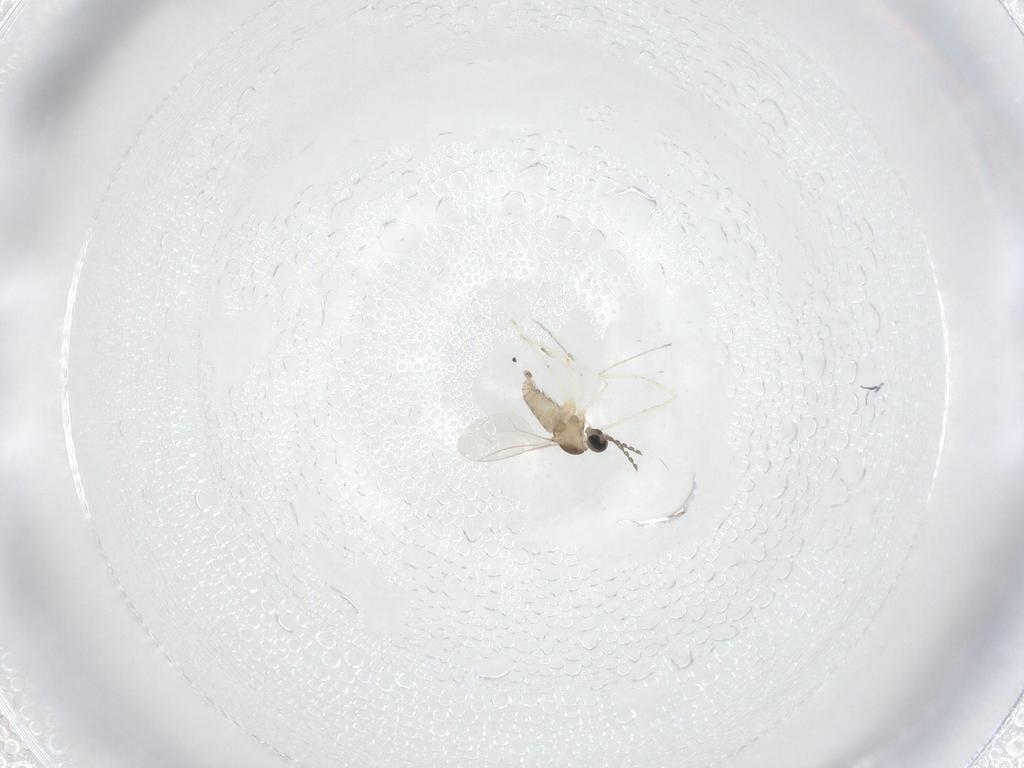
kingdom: Animalia
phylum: Arthropoda
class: Insecta
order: Diptera
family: Cecidomyiidae
